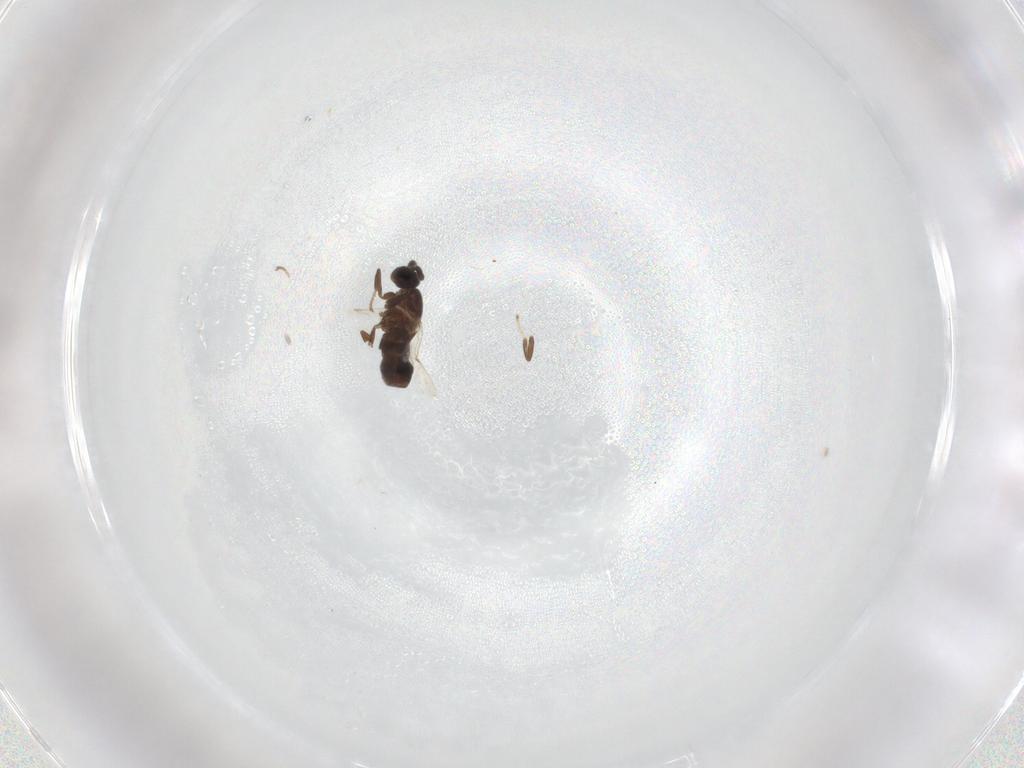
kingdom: Animalia
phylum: Arthropoda
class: Insecta
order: Diptera
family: Scatopsidae
